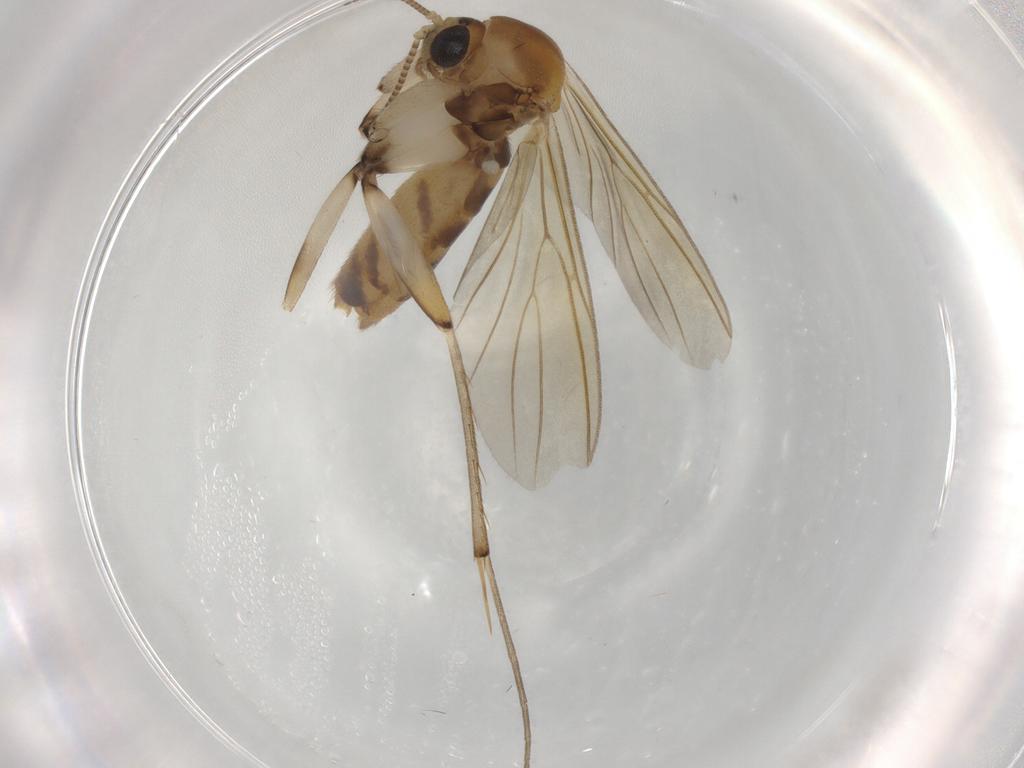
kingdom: Animalia
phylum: Arthropoda
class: Insecta
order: Diptera
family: Mycetophilidae
